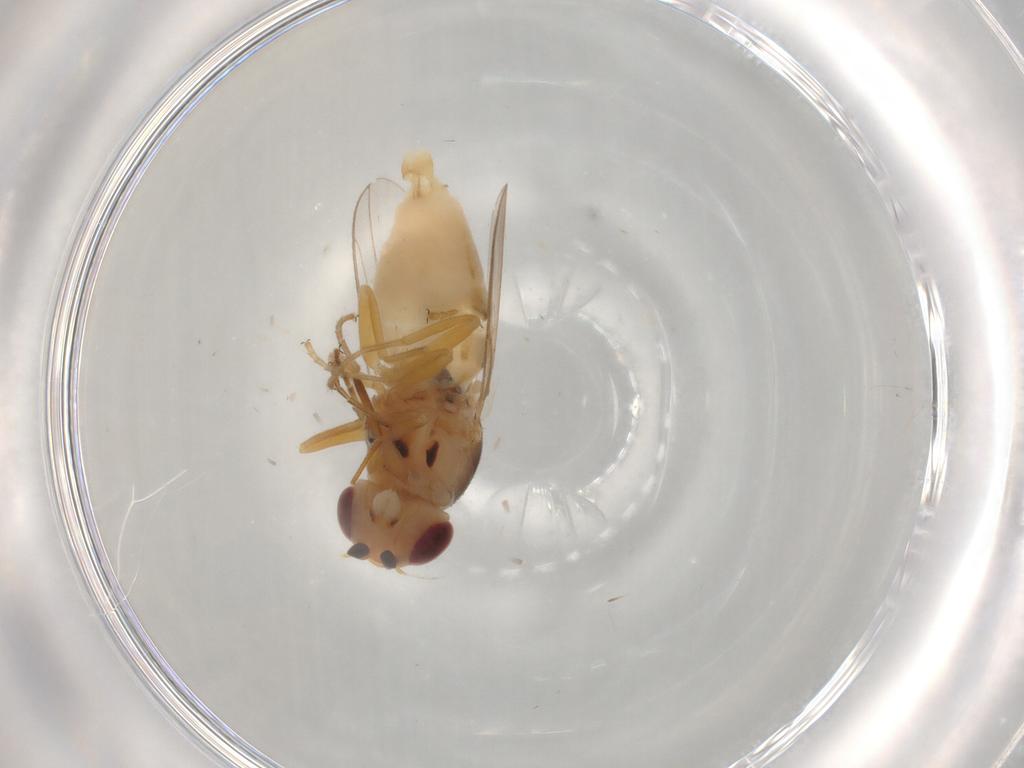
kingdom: Animalia
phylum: Arthropoda
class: Insecta
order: Diptera
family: Chloropidae
